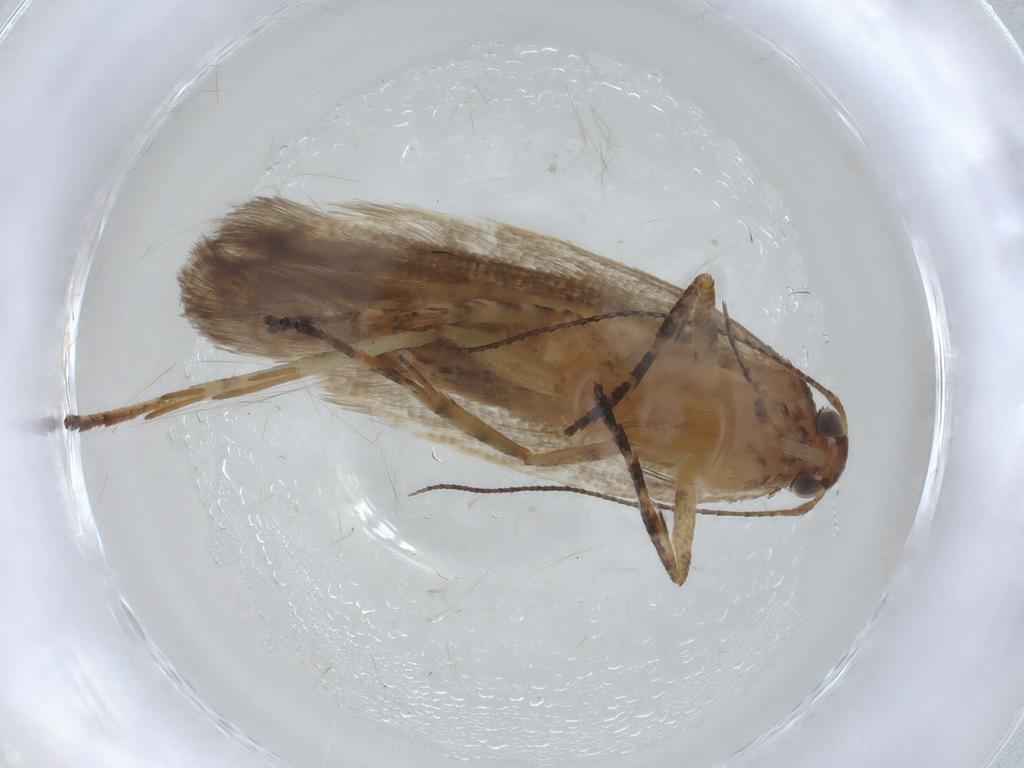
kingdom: Animalia
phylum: Arthropoda
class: Insecta
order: Lepidoptera
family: Gelechiidae
